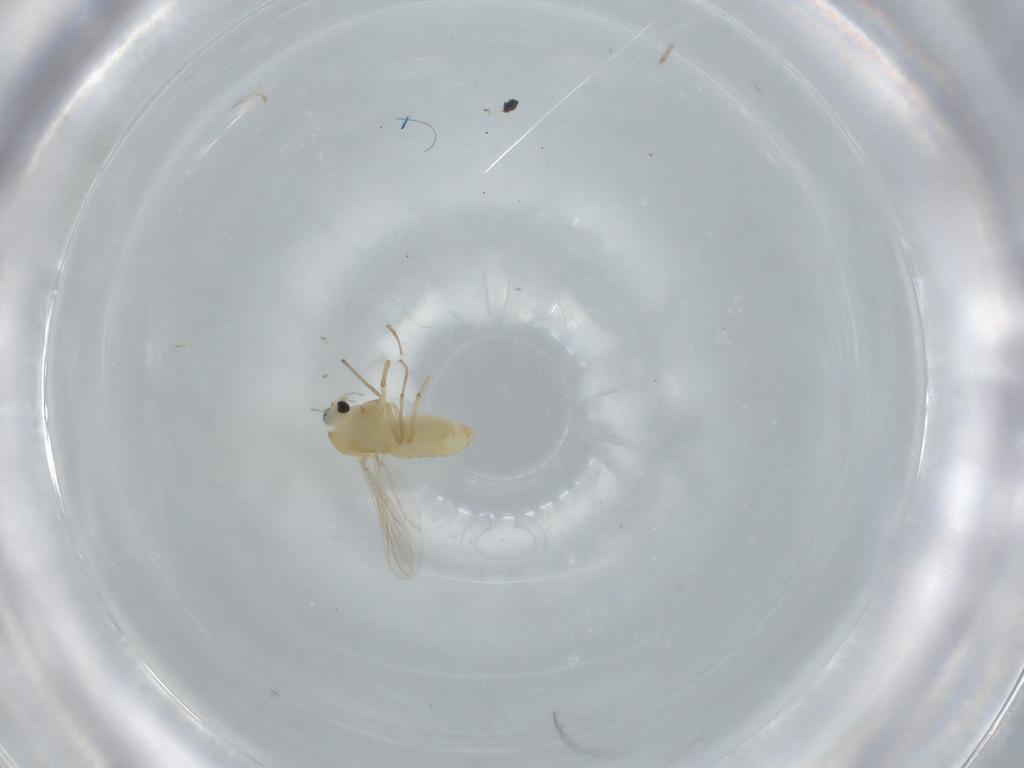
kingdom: Animalia
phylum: Arthropoda
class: Insecta
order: Diptera
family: Chironomidae
